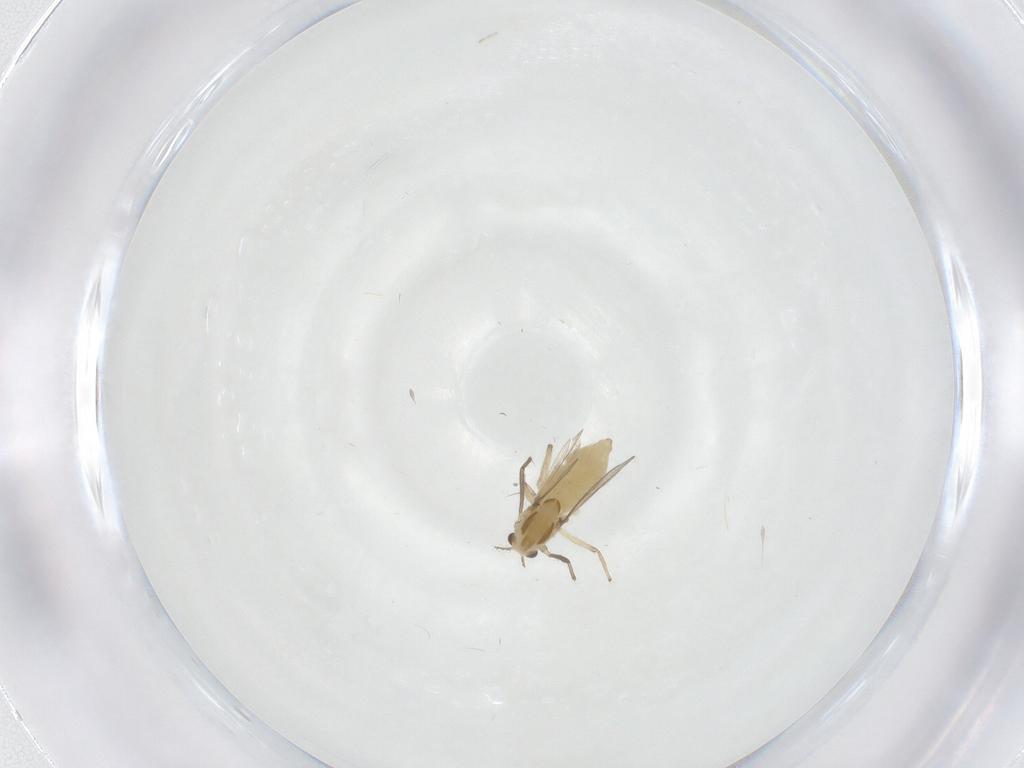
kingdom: Animalia
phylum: Arthropoda
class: Insecta
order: Diptera
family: Chironomidae
